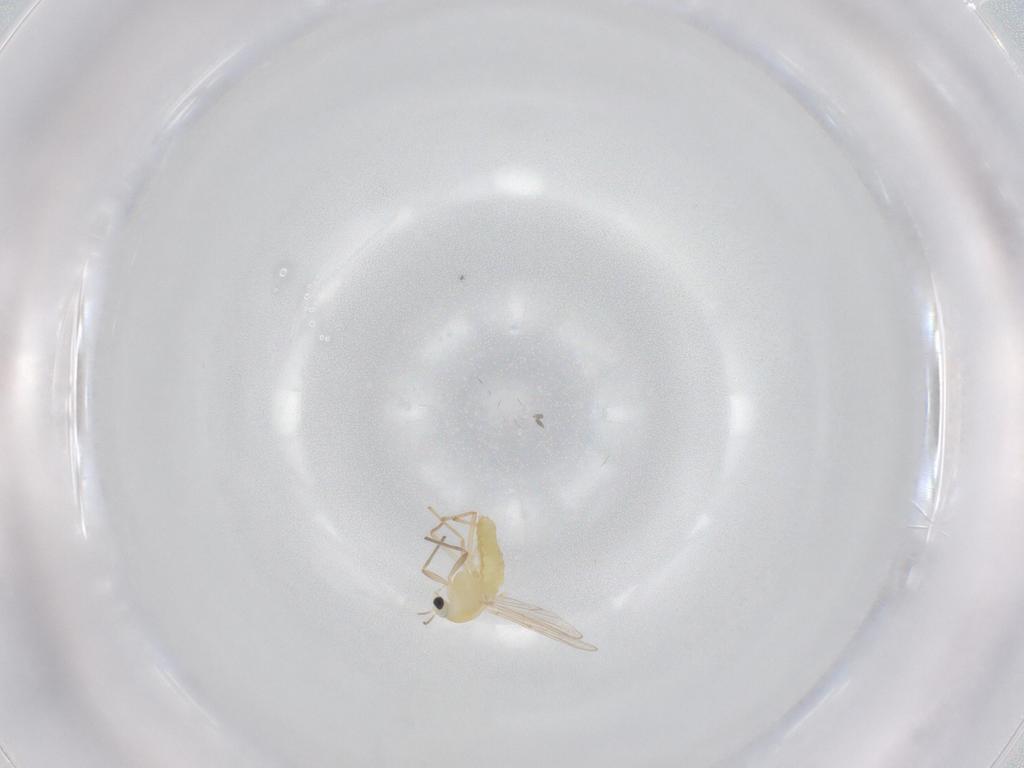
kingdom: Animalia
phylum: Arthropoda
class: Insecta
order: Diptera
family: Chironomidae
